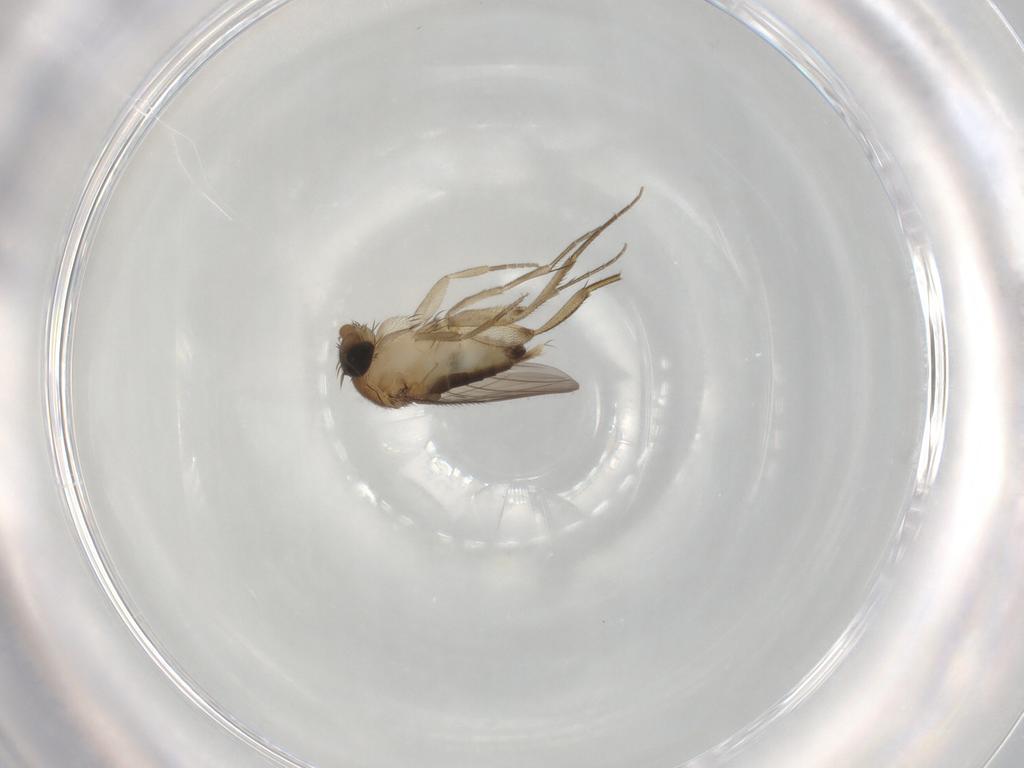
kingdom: Animalia
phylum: Arthropoda
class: Insecta
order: Diptera
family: Phoridae
